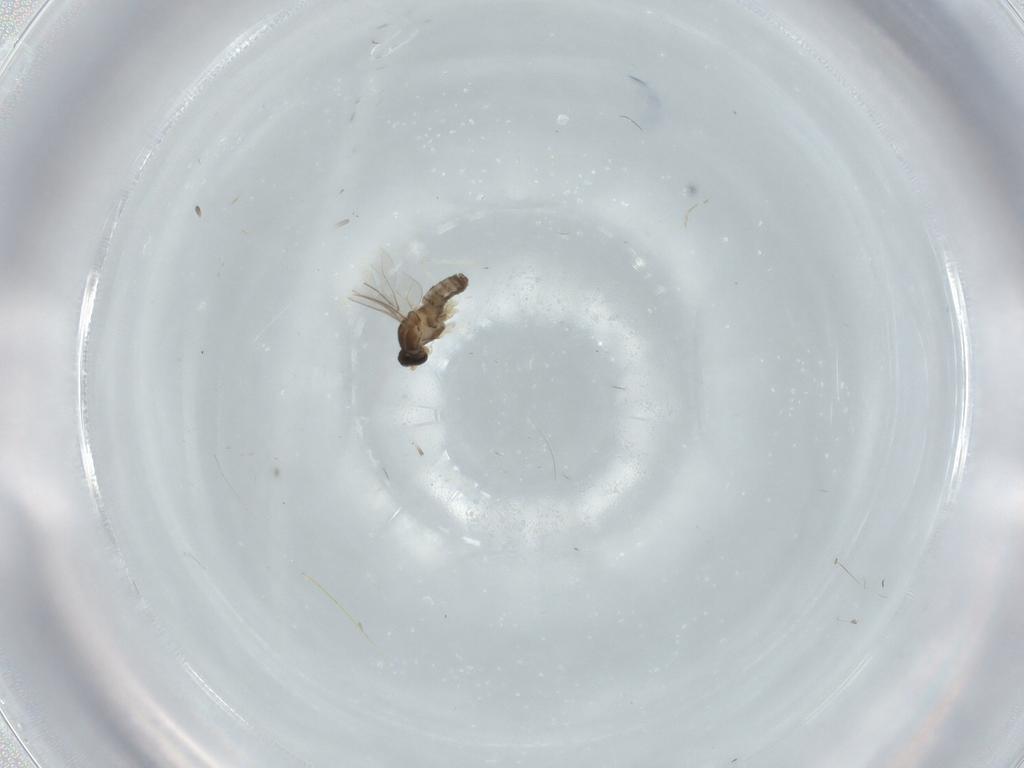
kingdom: Animalia
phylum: Arthropoda
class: Insecta
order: Diptera
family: Cecidomyiidae
